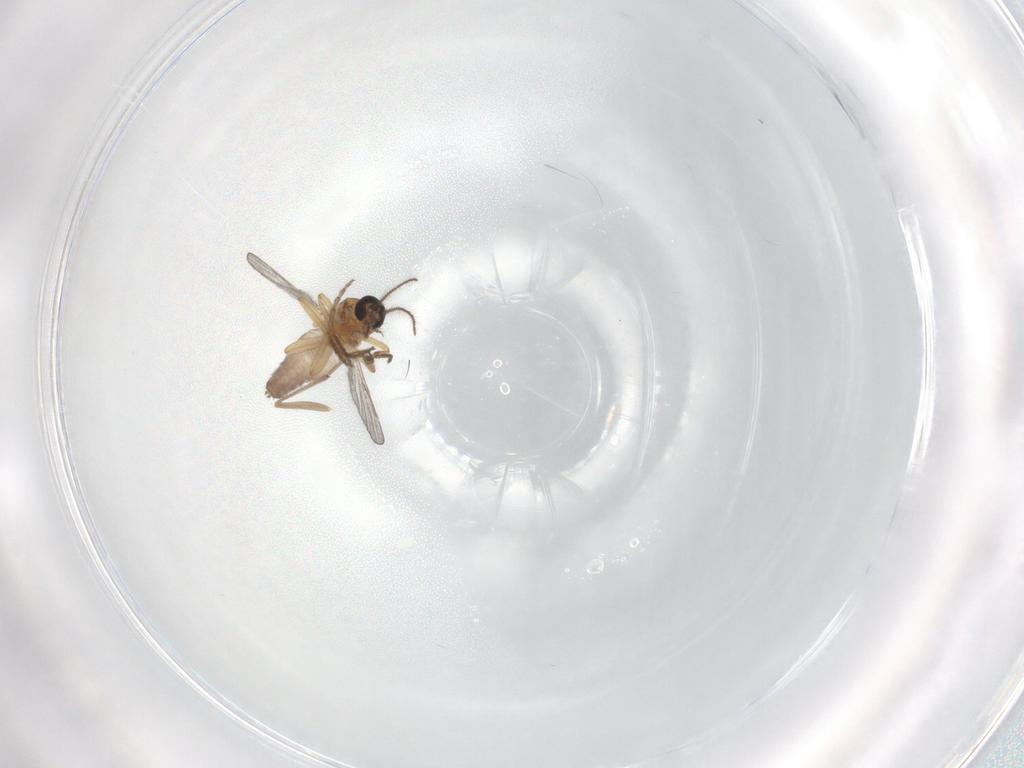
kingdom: Animalia
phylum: Arthropoda
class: Insecta
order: Diptera
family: Ceratopogonidae
